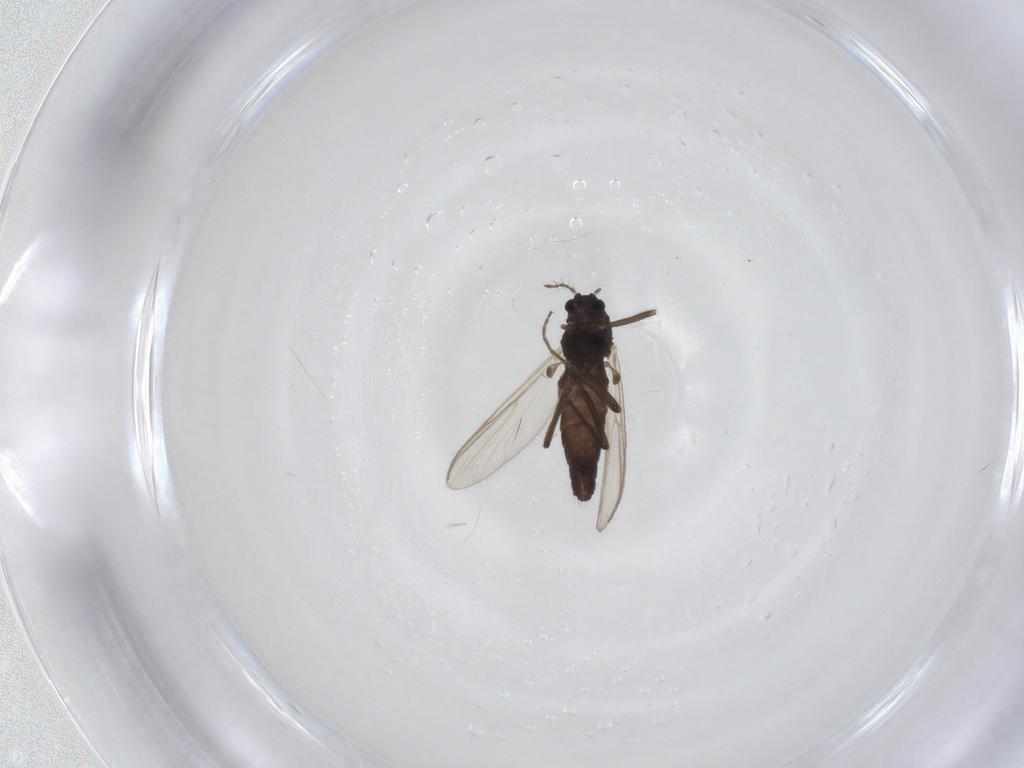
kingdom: Animalia
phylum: Arthropoda
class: Insecta
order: Diptera
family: Chironomidae
